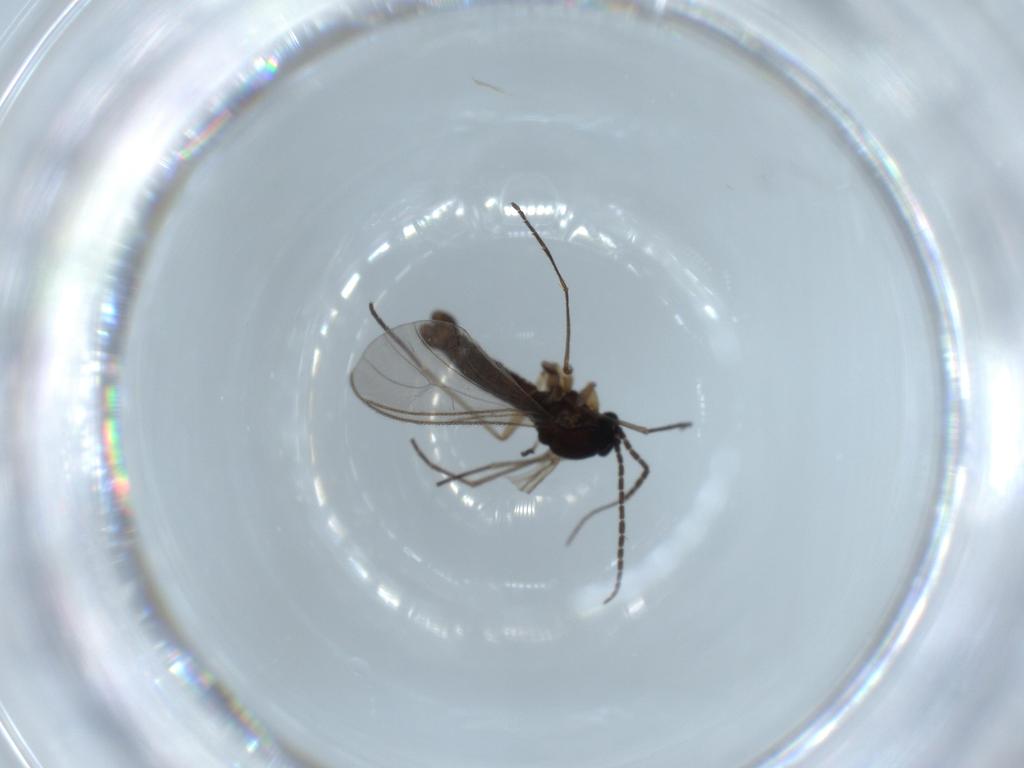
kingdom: Animalia
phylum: Arthropoda
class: Insecta
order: Diptera
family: Sciaridae
